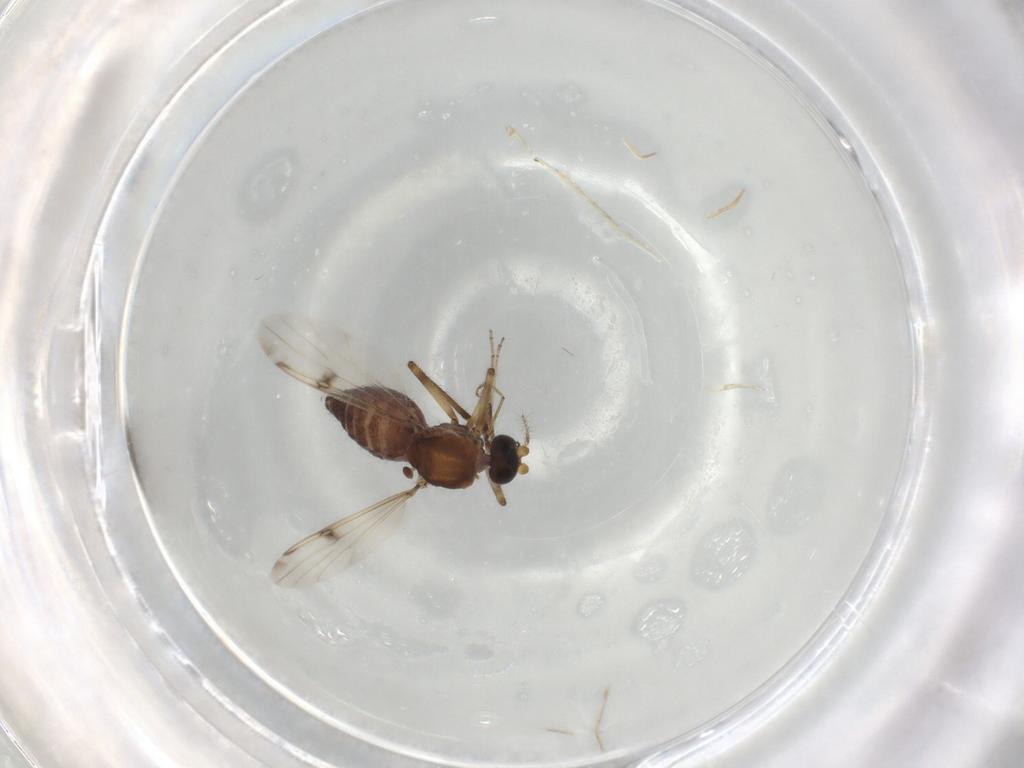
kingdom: Animalia
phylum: Arthropoda
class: Insecta
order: Diptera
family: Ceratopogonidae
